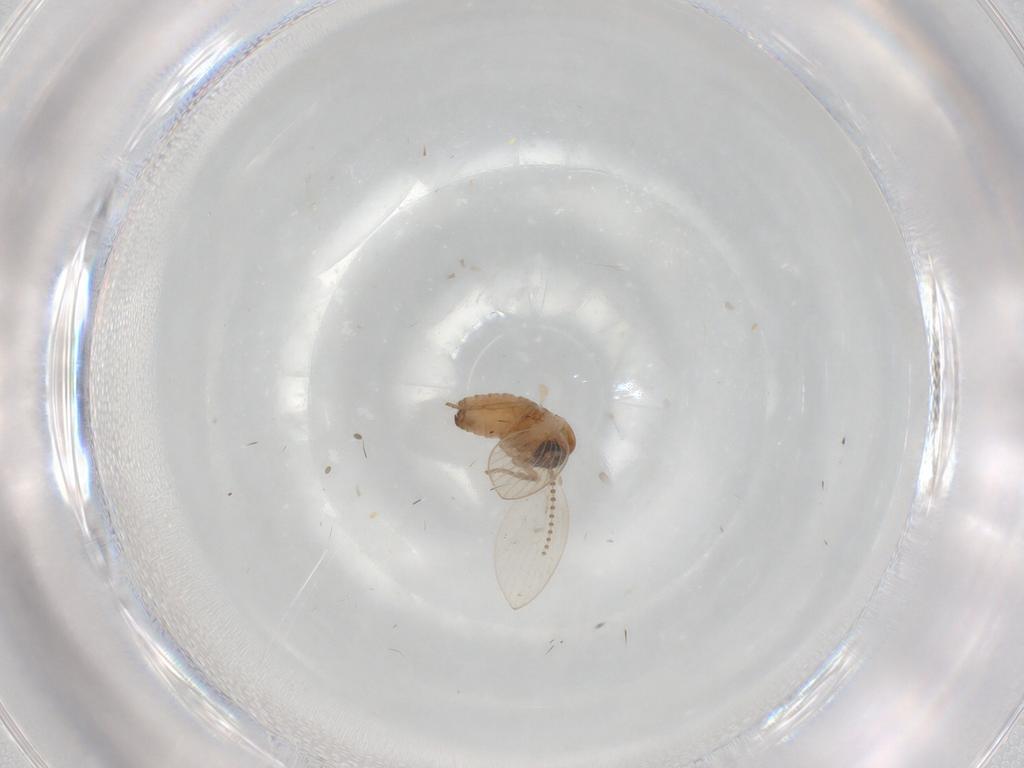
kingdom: Animalia
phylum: Arthropoda
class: Insecta
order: Diptera
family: Psychodidae
